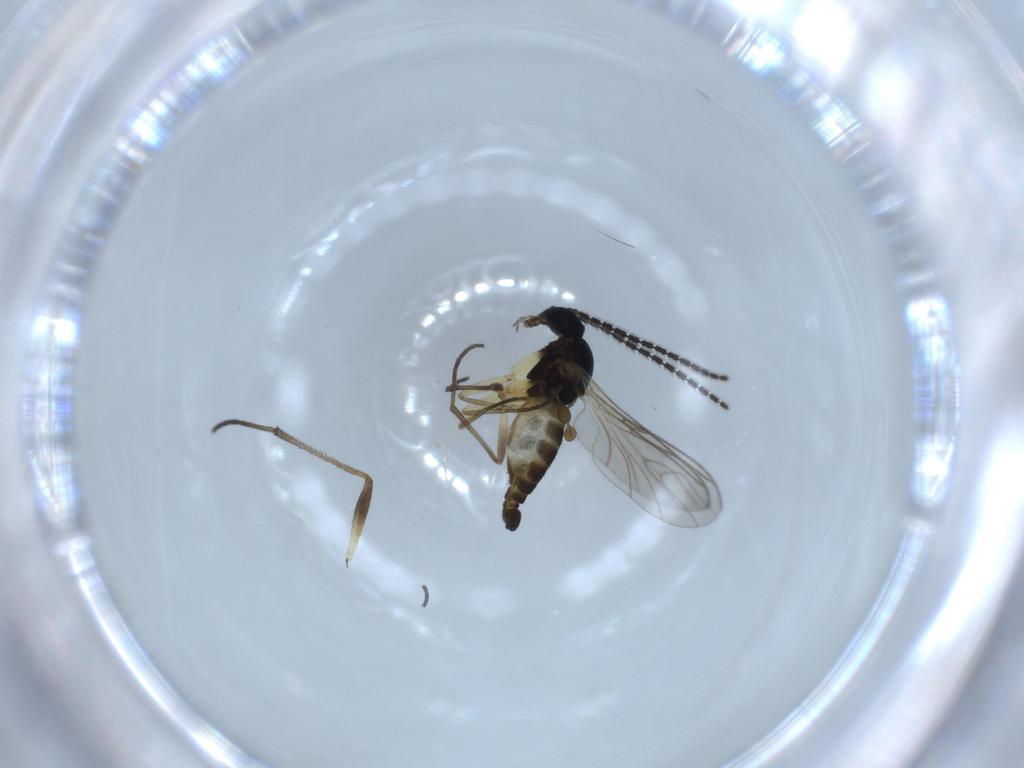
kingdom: Animalia
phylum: Arthropoda
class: Insecta
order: Diptera
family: Sciaridae
